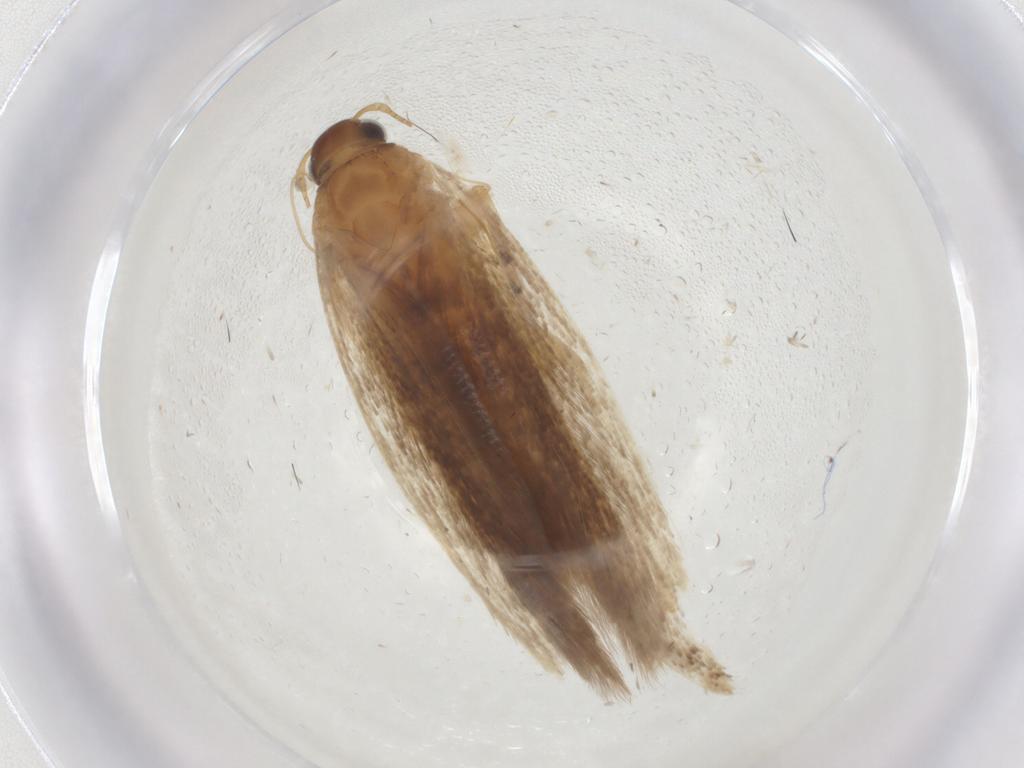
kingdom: Animalia
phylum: Arthropoda
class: Insecta
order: Lepidoptera
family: Gelechiidae
